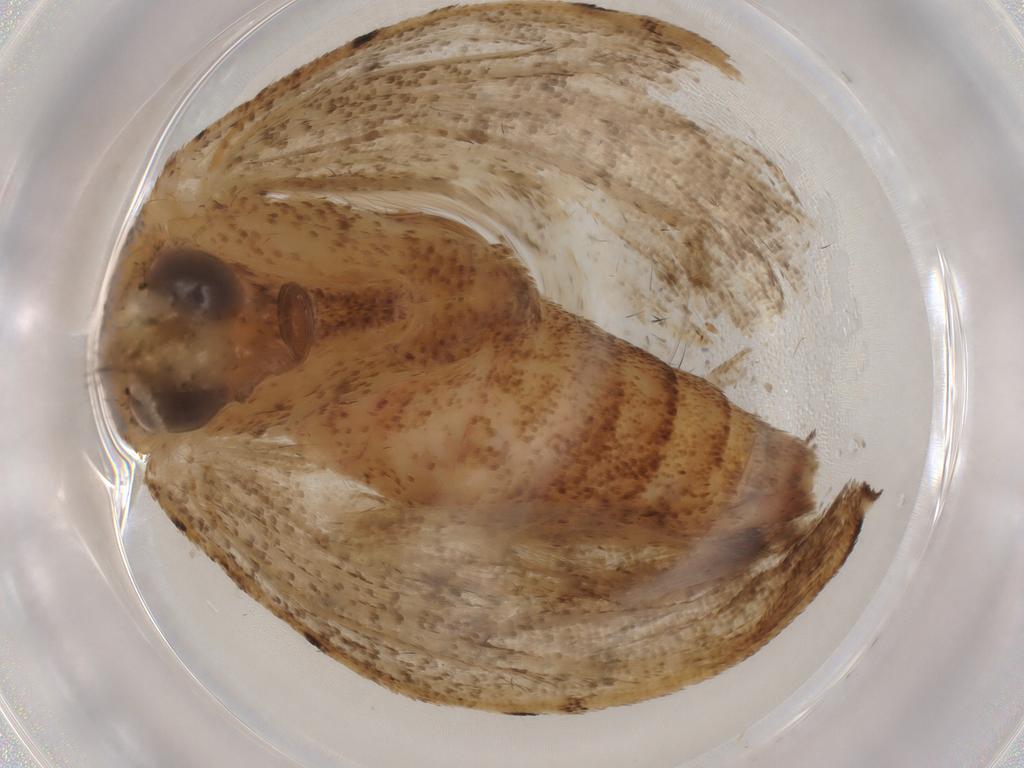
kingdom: Animalia
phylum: Arthropoda
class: Insecta
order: Lepidoptera
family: Erebidae
